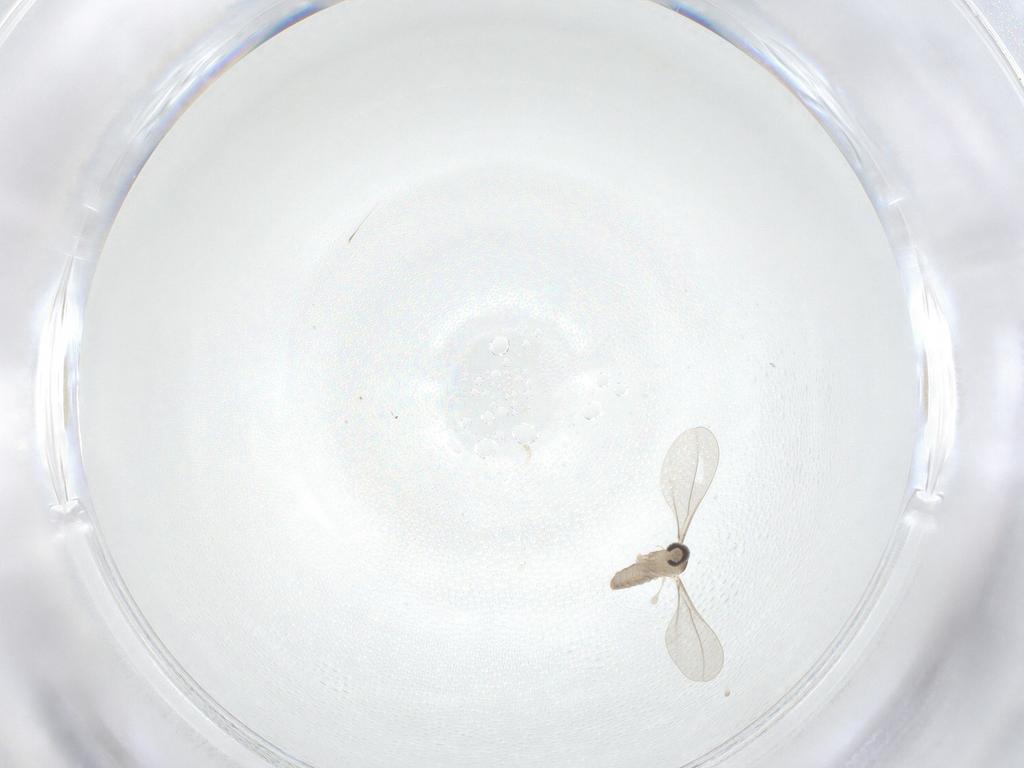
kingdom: Animalia
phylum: Arthropoda
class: Insecta
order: Diptera
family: Cecidomyiidae
